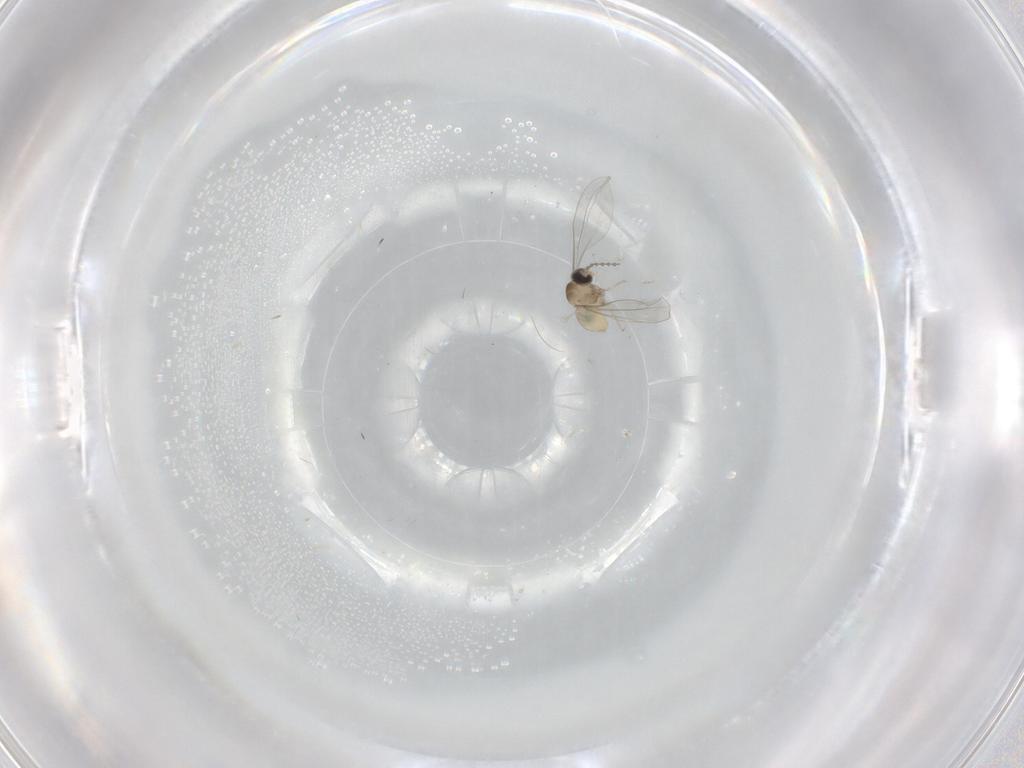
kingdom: Animalia
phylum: Arthropoda
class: Insecta
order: Diptera
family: Cecidomyiidae
